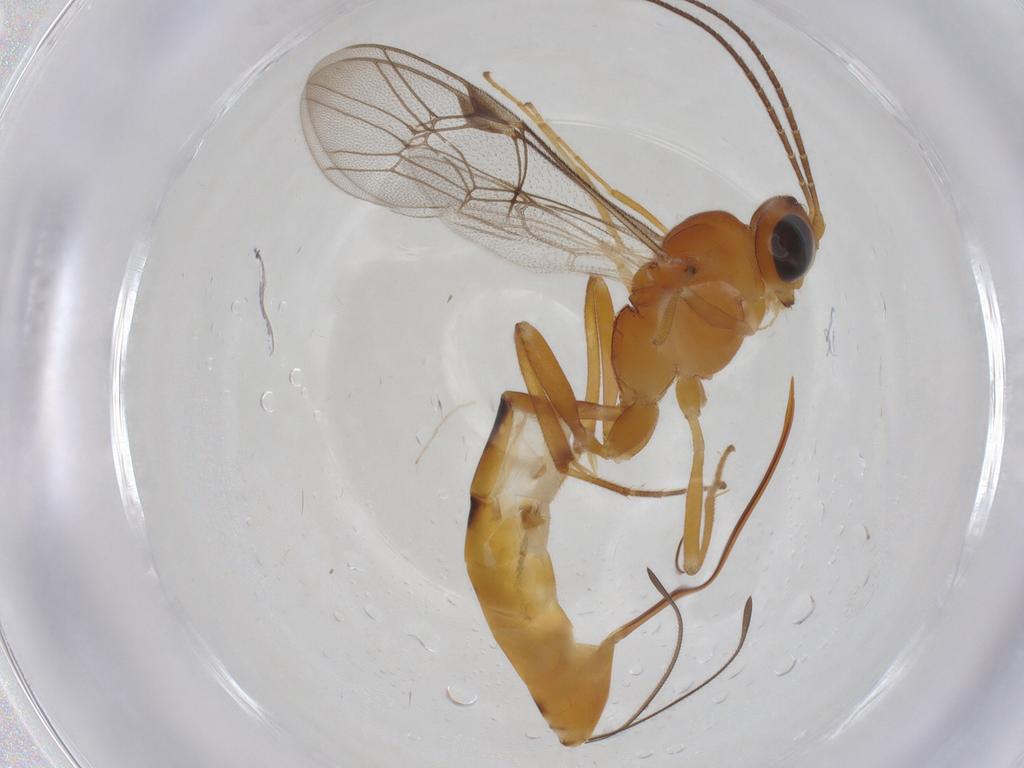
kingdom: Animalia
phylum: Arthropoda
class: Insecta
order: Hymenoptera
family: Ichneumonidae
